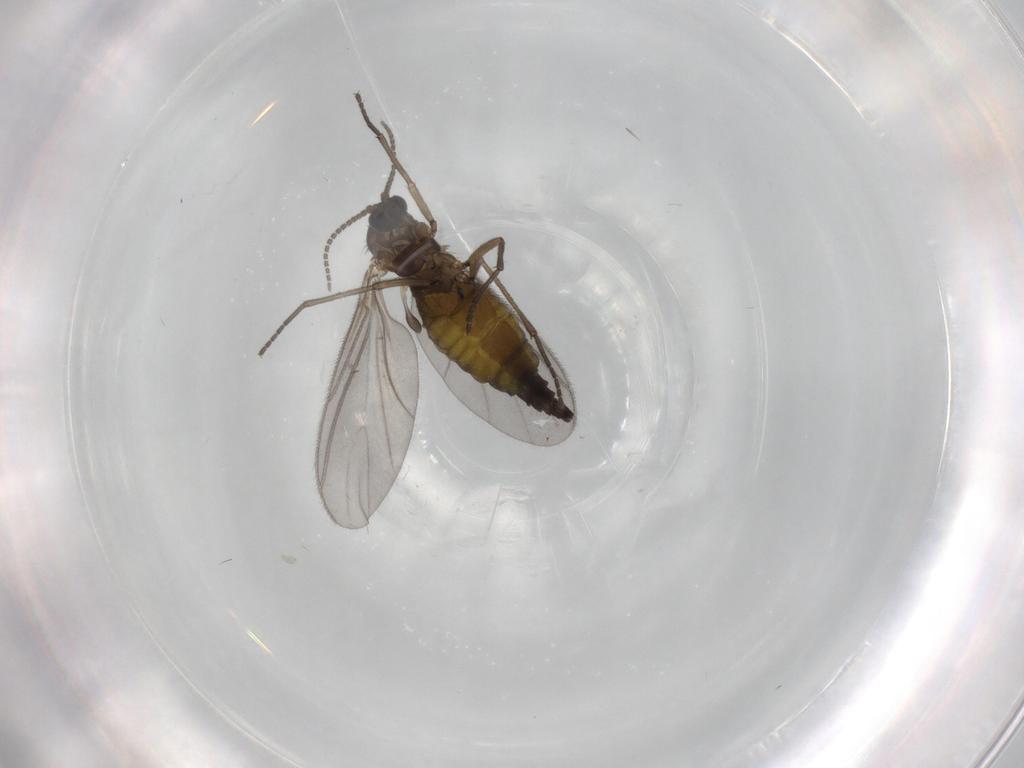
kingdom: Animalia
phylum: Arthropoda
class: Insecta
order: Diptera
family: Sciaridae
